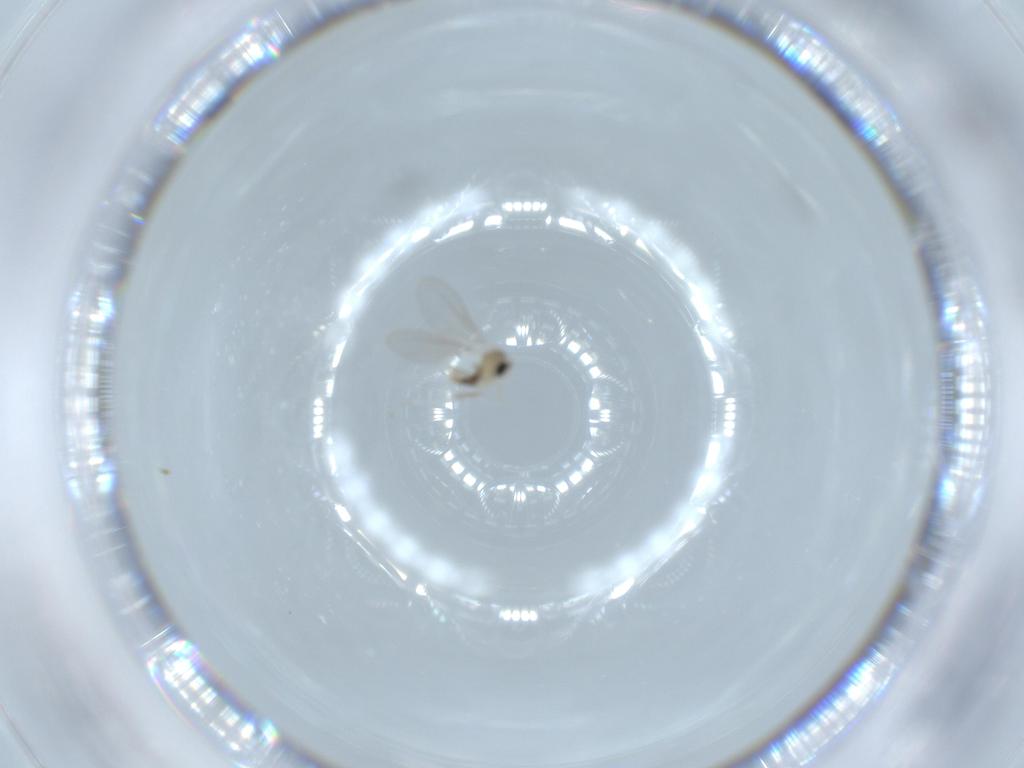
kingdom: Animalia
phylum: Arthropoda
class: Insecta
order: Diptera
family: Cecidomyiidae
